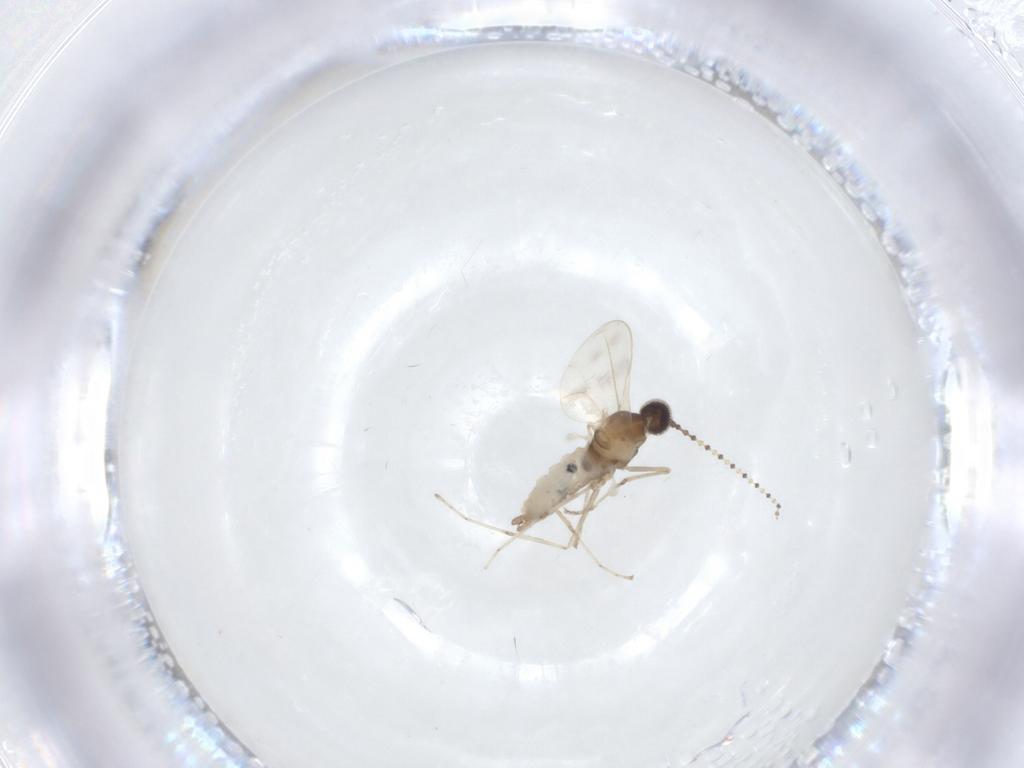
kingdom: Animalia
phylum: Arthropoda
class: Insecta
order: Diptera
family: Cecidomyiidae
